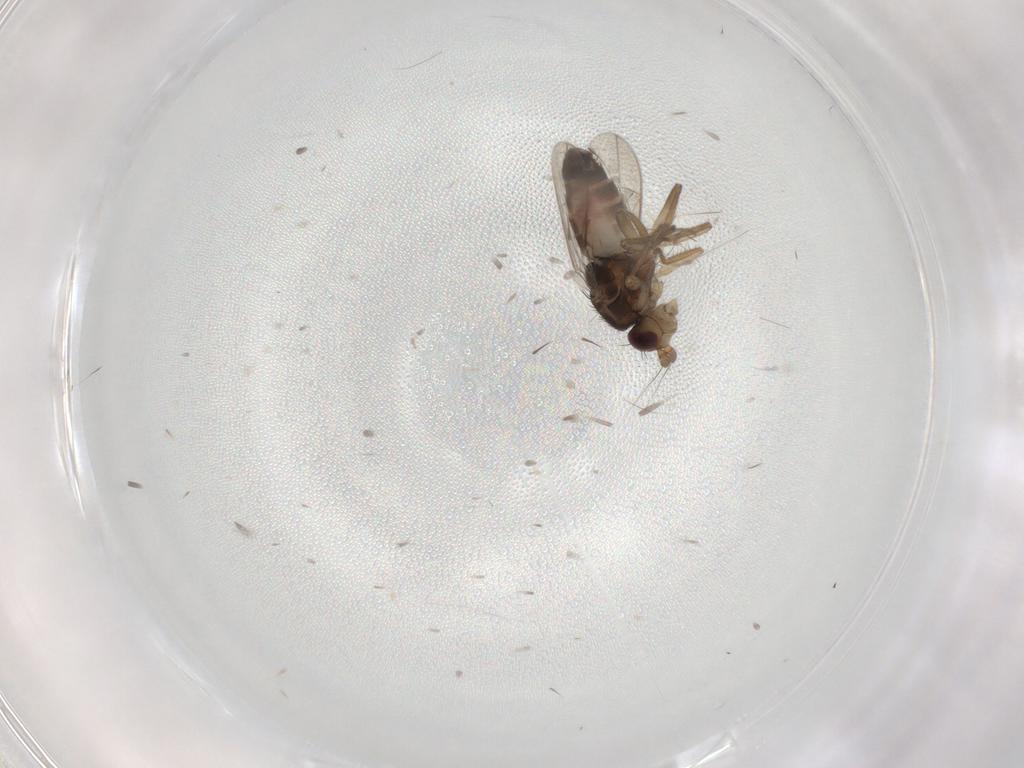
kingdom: Animalia
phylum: Arthropoda
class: Insecta
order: Diptera
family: Sphaeroceridae
